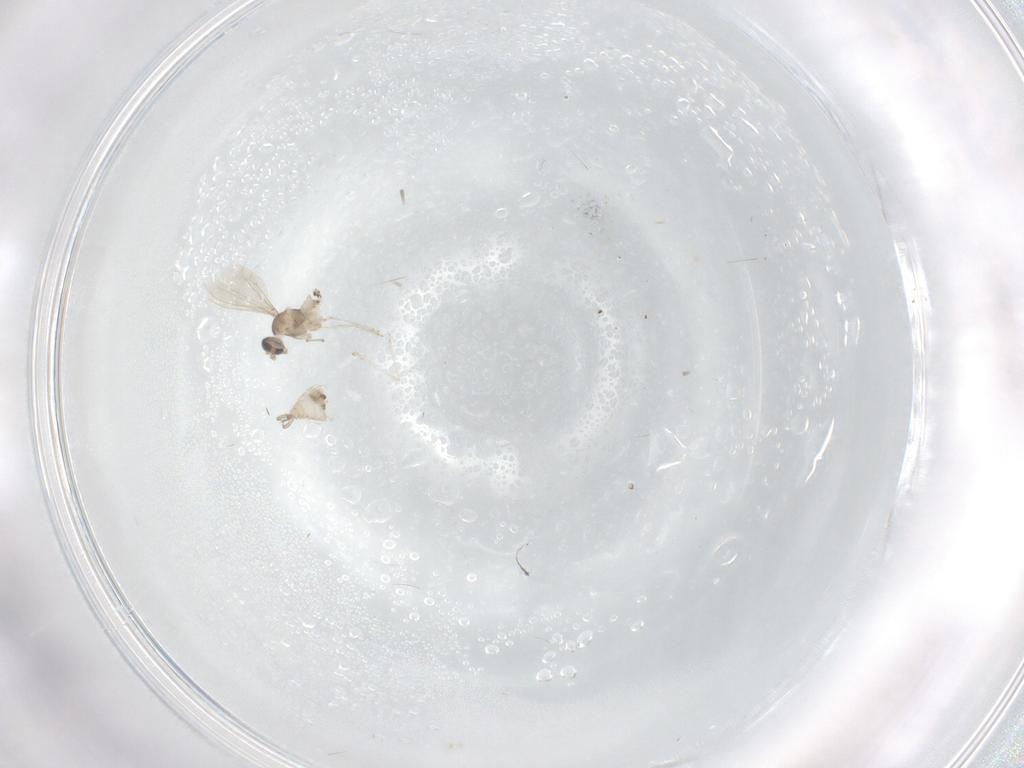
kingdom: Animalia
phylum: Arthropoda
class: Insecta
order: Diptera
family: Cecidomyiidae
